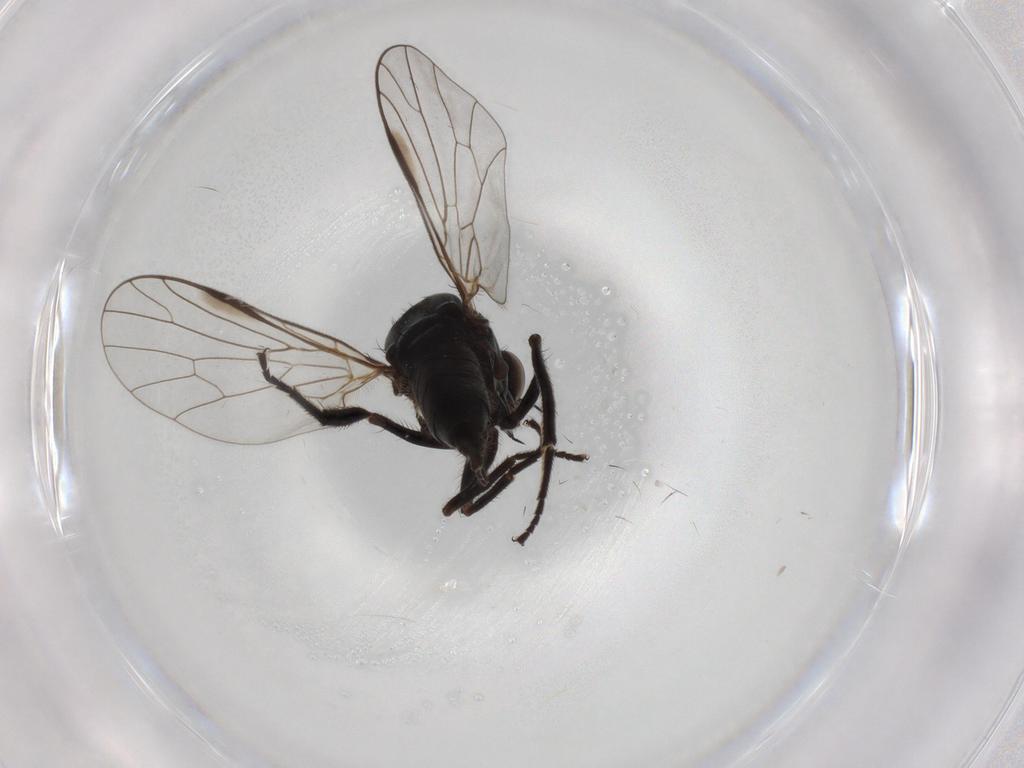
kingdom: Animalia
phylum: Arthropoda
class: Insecta
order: Diptera
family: Empididae
